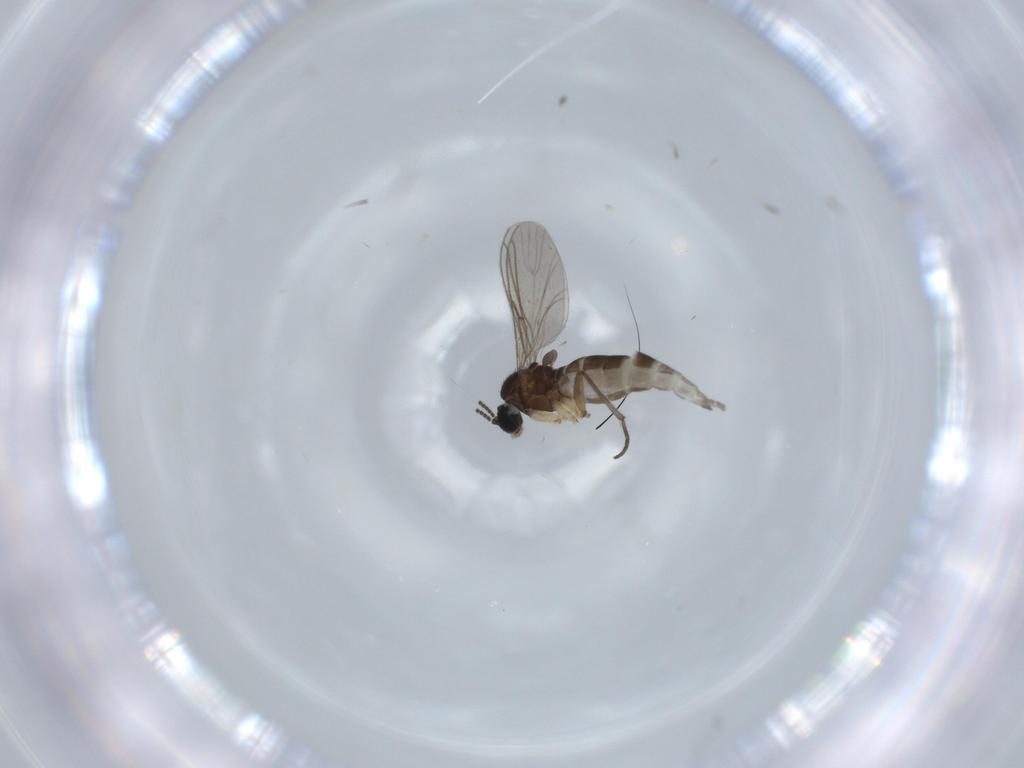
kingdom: Animalia
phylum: Arthropoda
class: Insecta
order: Diptera
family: Sciaridae
